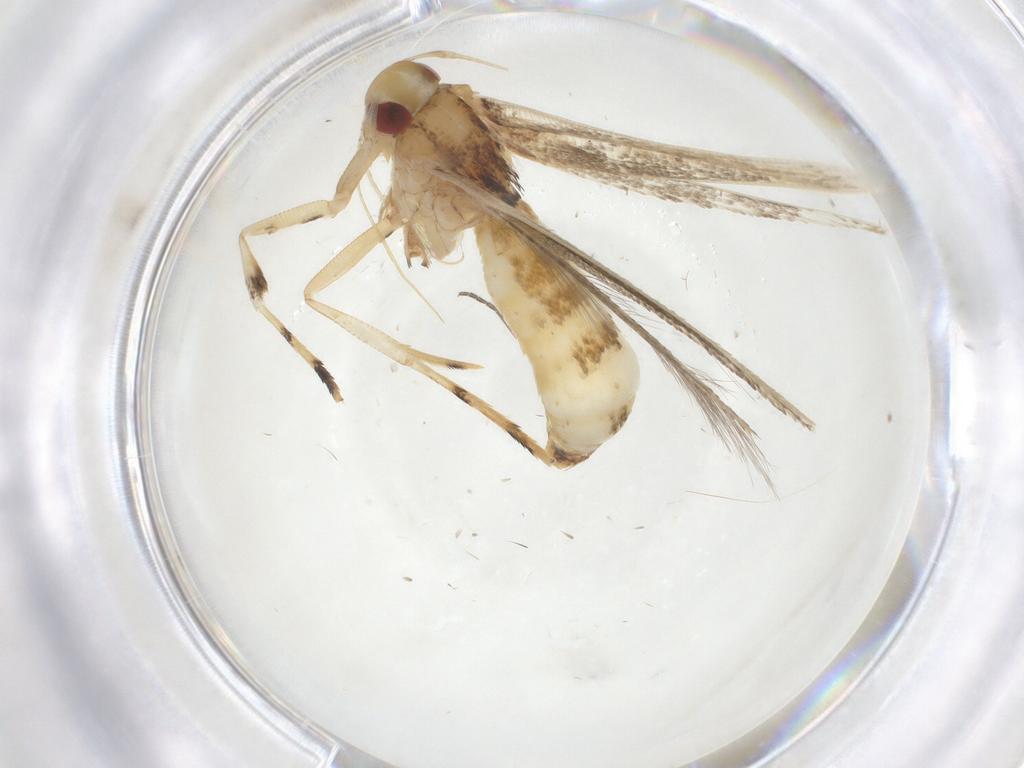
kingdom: Animalia
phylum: Arthropoda
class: Insecta
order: Lepidoptera
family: Cosmopterigidae
